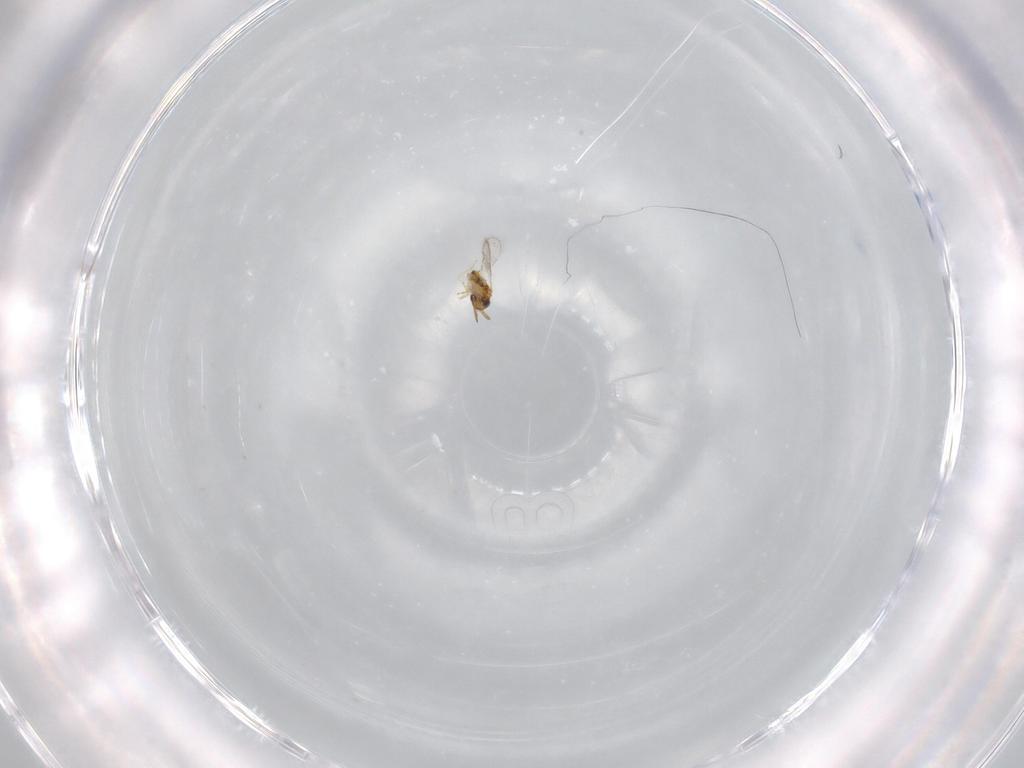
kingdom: Animalia
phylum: Arthropoda
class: Insecta
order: Hymenoptera
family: Aphelinidae
